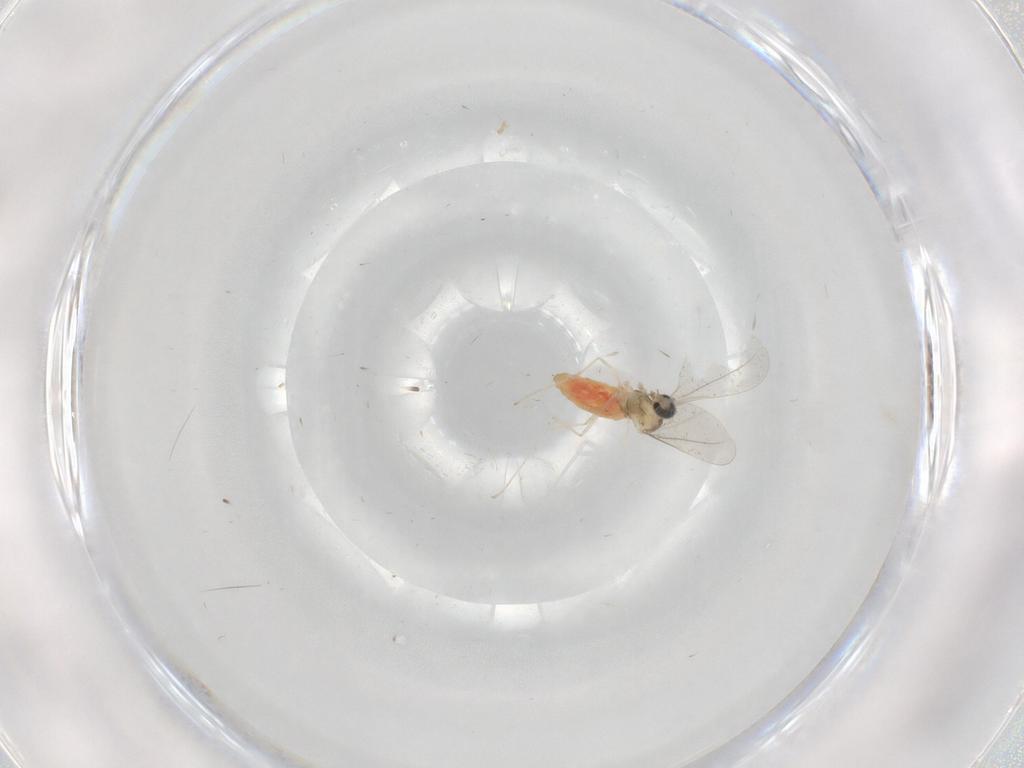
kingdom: Animalia
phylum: Arthropoda
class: Insecta
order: Diptera
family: Cecidomyiidae
